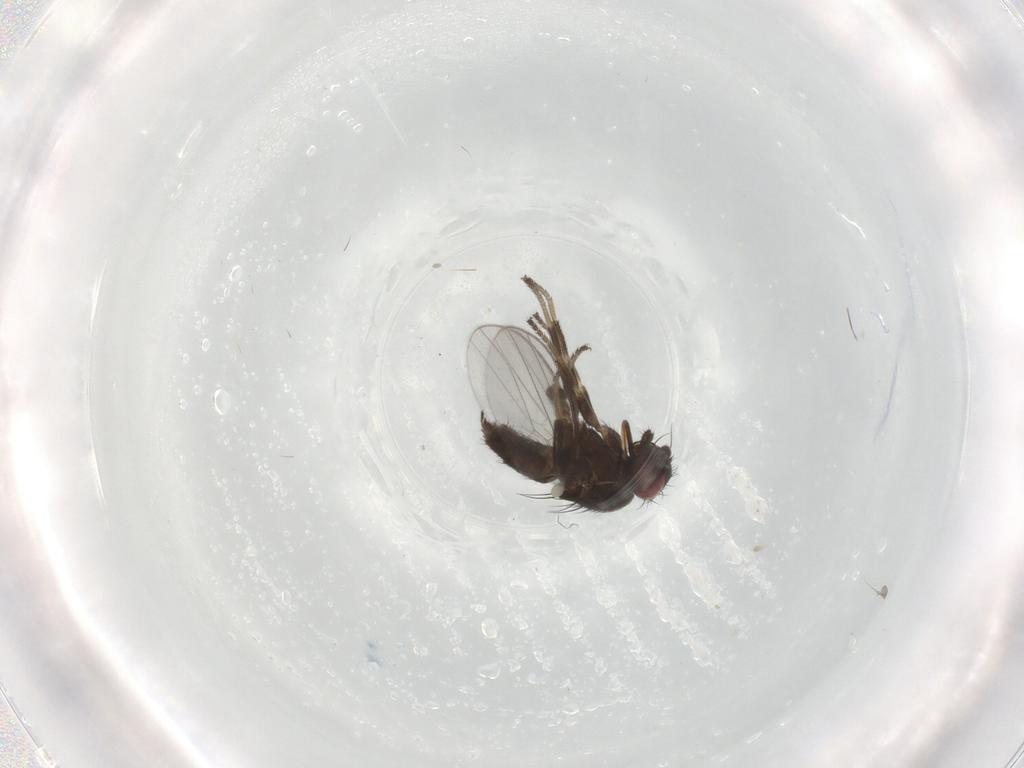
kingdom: Animalia
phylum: Arthropoda
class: Insecta
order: Diptera
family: Milichiidae
